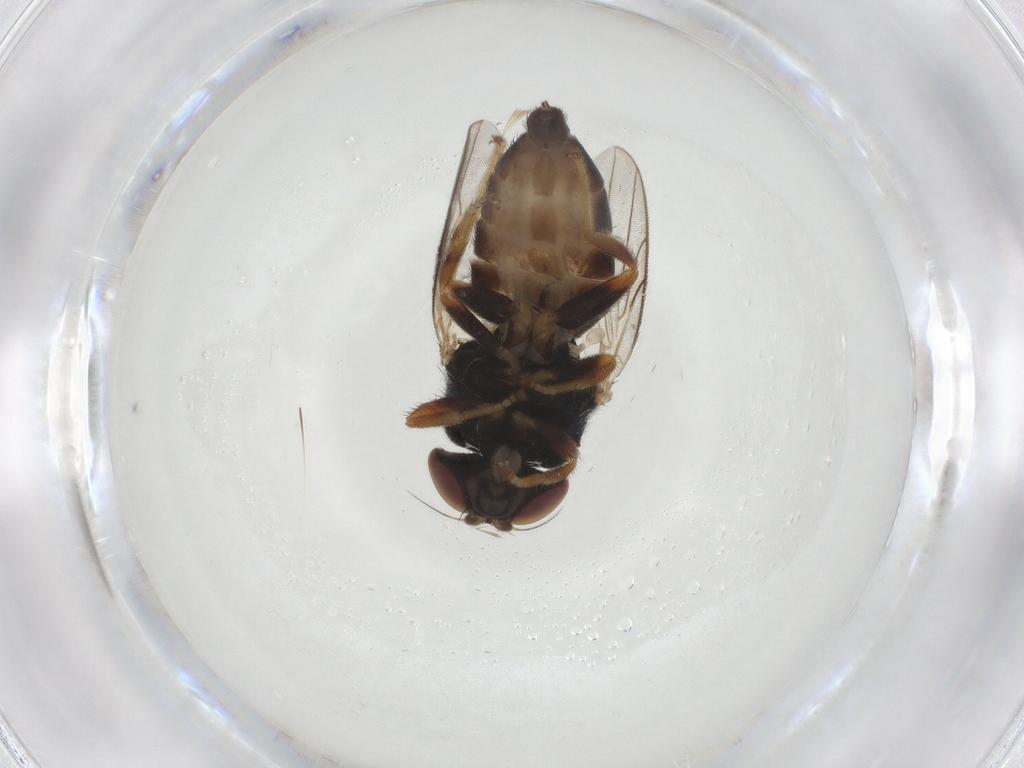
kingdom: Animalia
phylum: Arthropoda
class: Insecta
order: Diptera
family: Chloropidae
